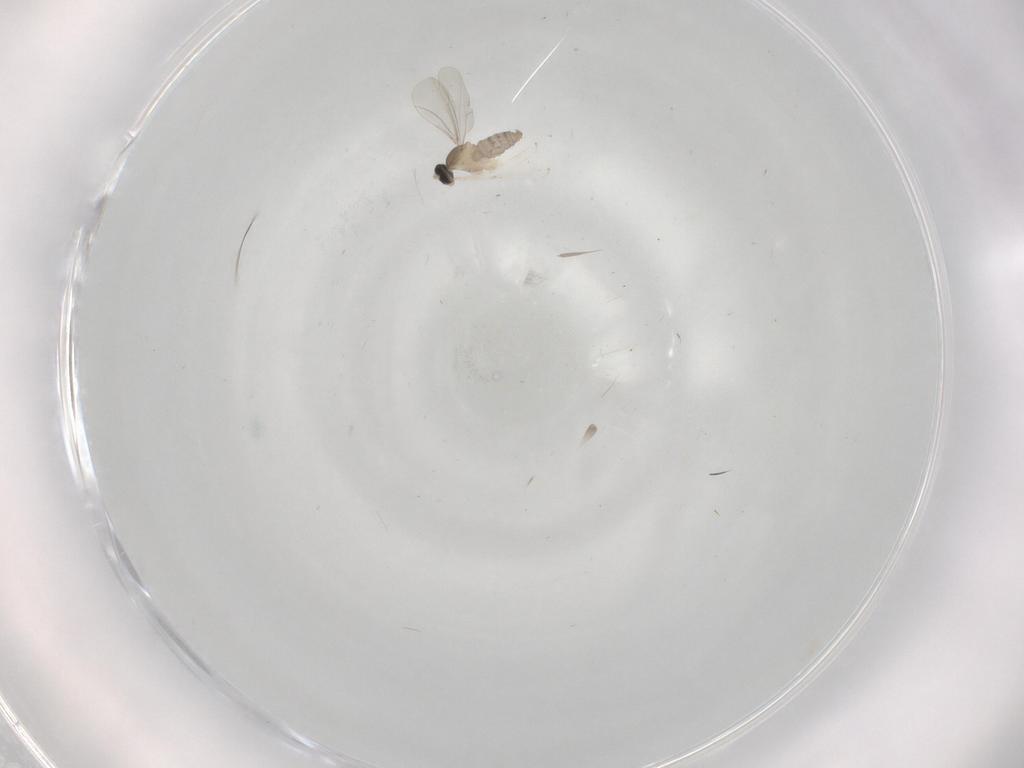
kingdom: Animalia
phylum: Arthropoda
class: Insecta
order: Diptera
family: Cecidomyiidae
